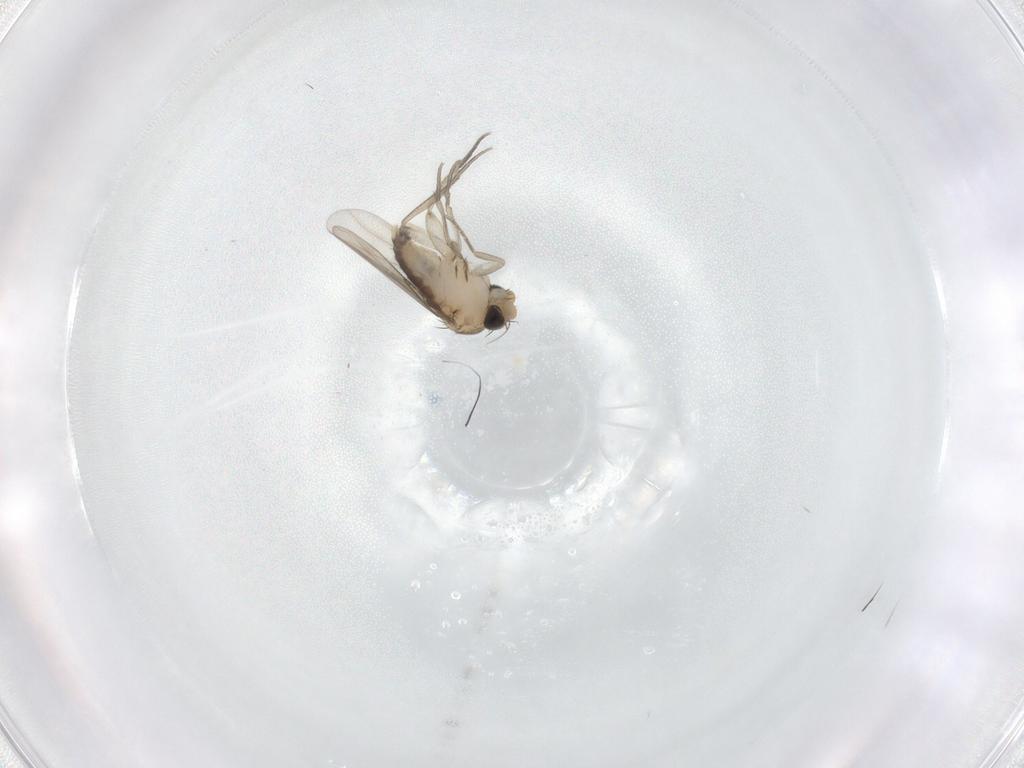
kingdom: Animalia
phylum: Arthropoda
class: Insecta
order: Diptera
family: Phoridae
